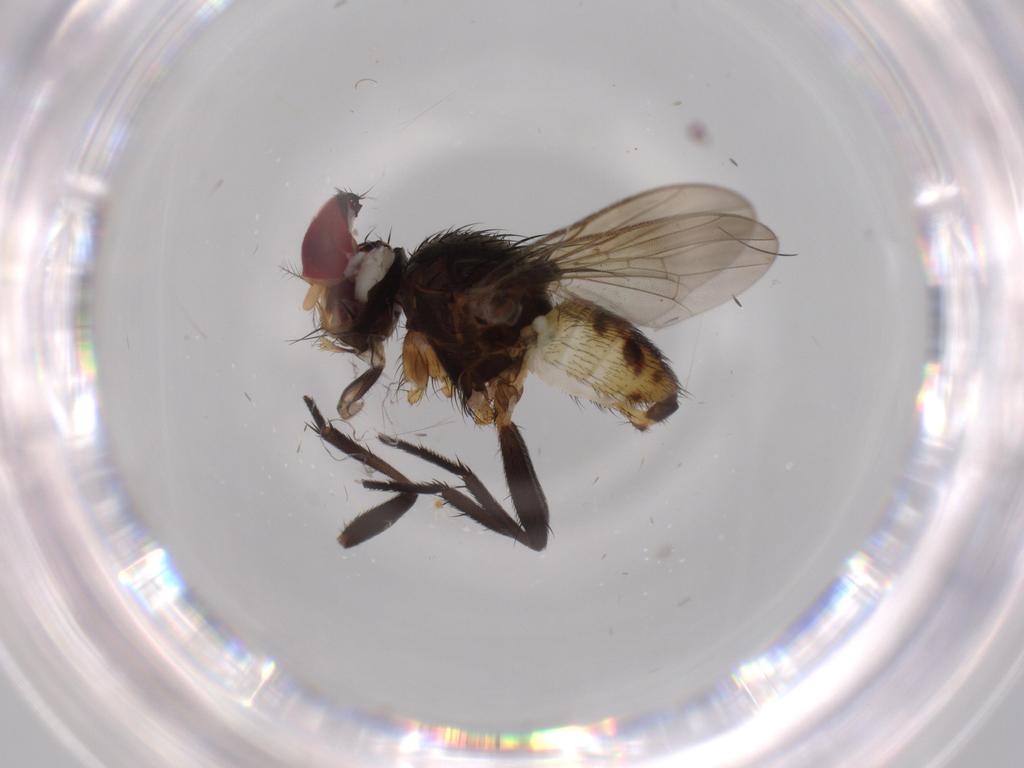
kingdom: Animalia
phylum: Arthropoda
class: Insecta
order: Diptera
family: Anthomyiidae
